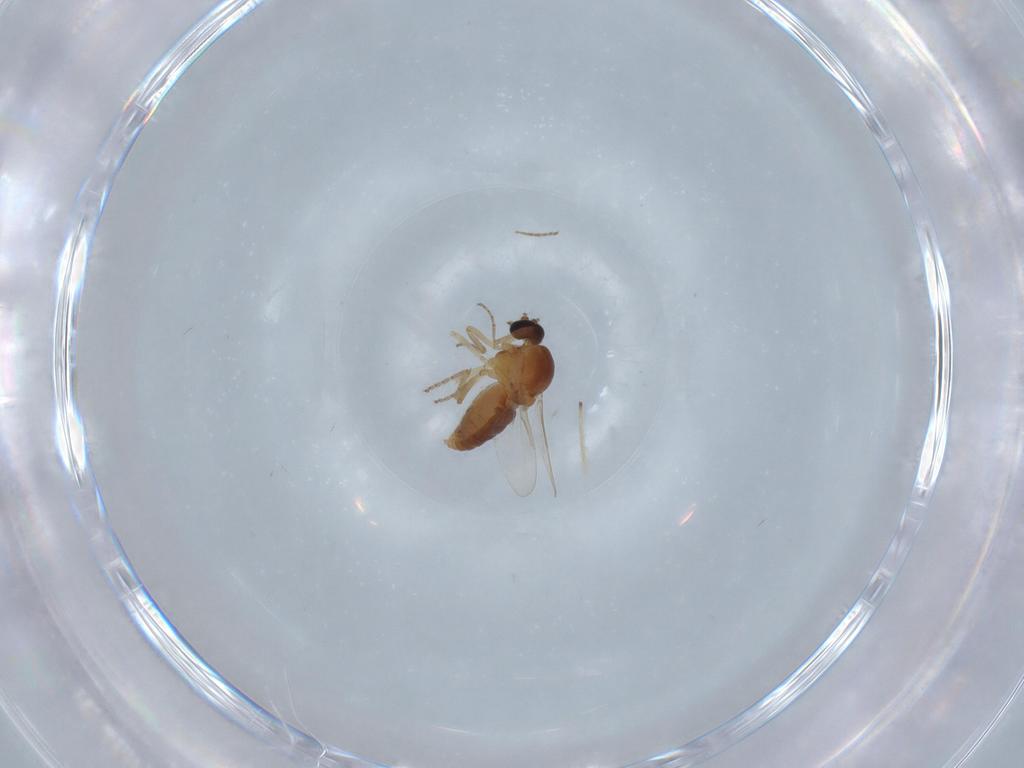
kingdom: Animalia
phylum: Arthropoda
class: Insecta
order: Diptera
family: Ceratopogonidae
